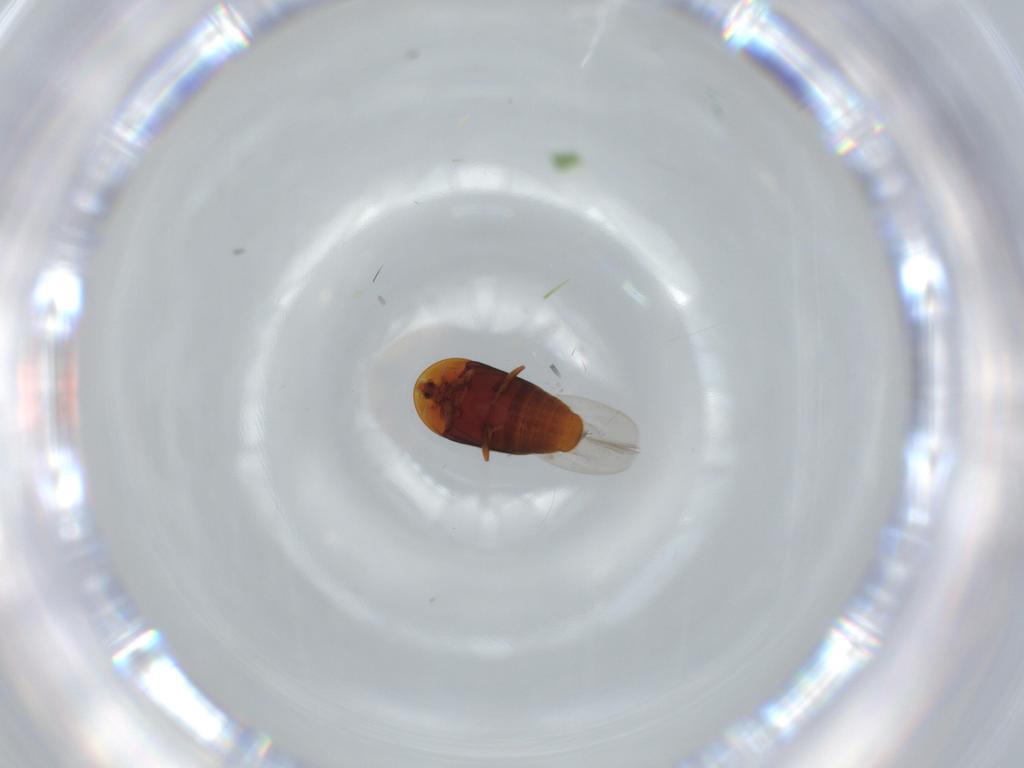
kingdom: Animalia
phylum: Arthropoda
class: Insecta
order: Coleoptera
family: Corylophidae
